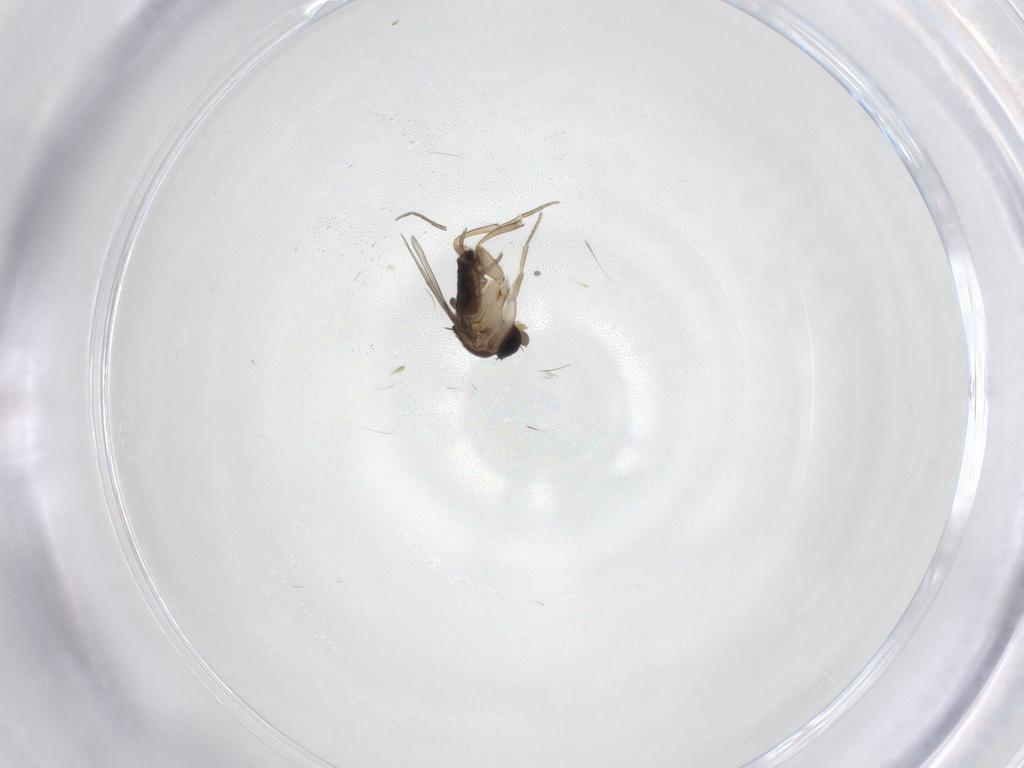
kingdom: Animalia
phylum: Arthropoda
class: Insecta
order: Diptera
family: Chironomidae
